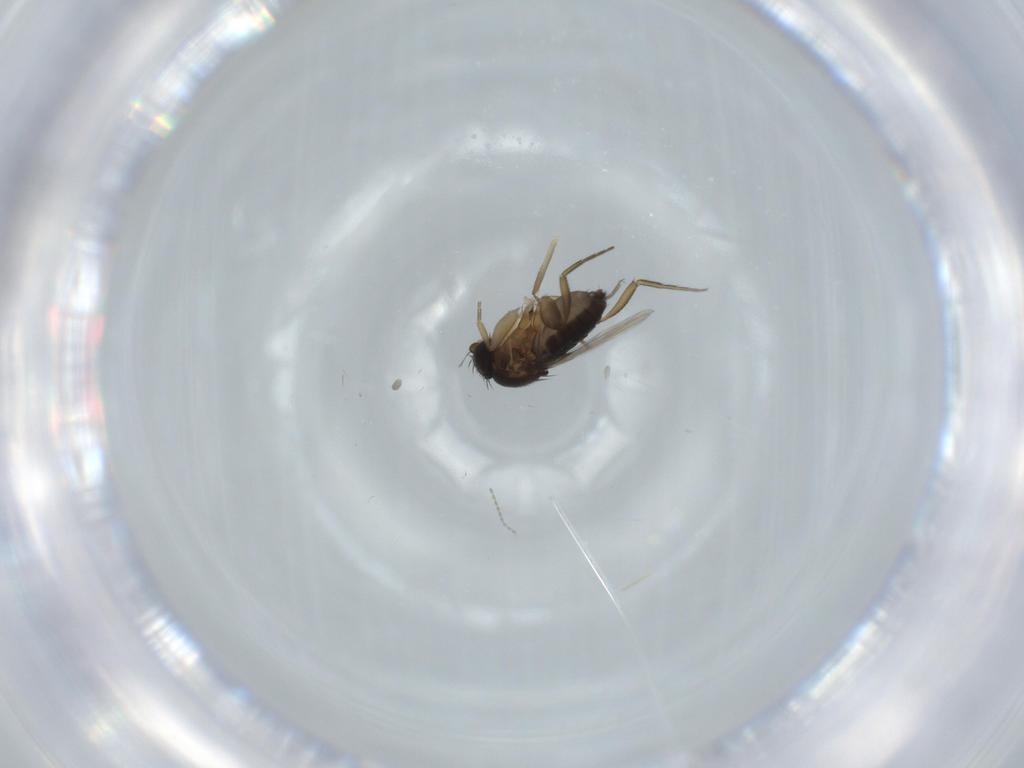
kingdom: Animalia
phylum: Arthropoda
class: Insecta
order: Diptera
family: Chironomidae
